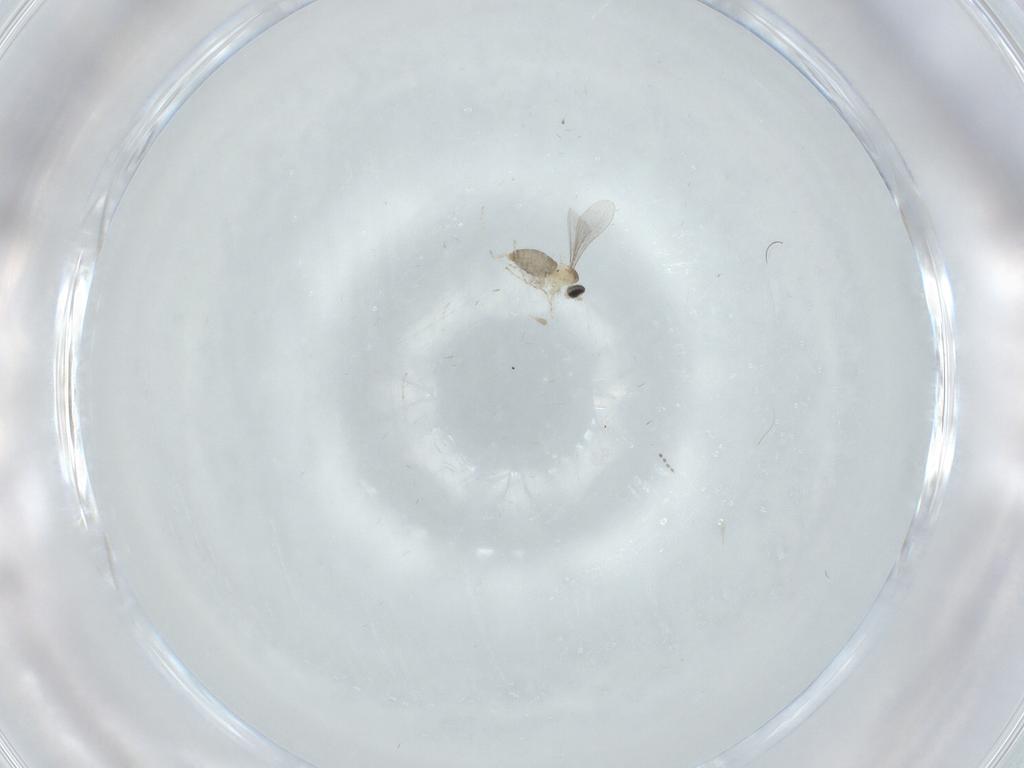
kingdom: Animalia
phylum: Arthropoda
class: Insecta
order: Diptera
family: Cecidomyiidae
